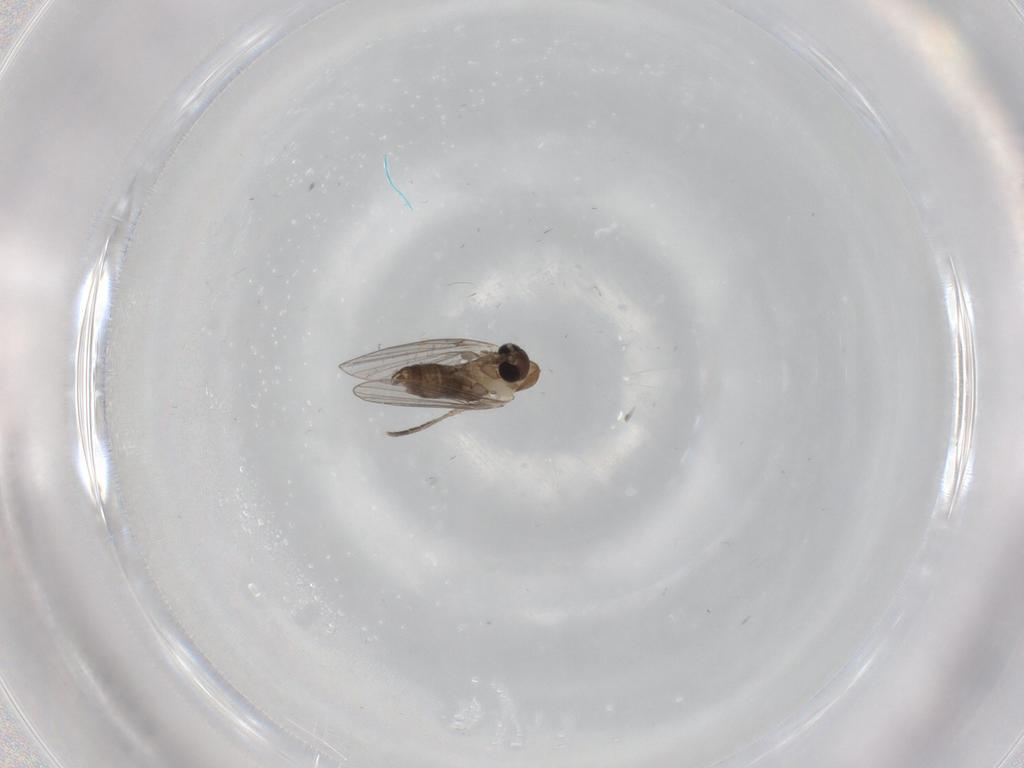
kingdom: Animalia
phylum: Arthropoda
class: Insecta
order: Diptera
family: Psychodidae
